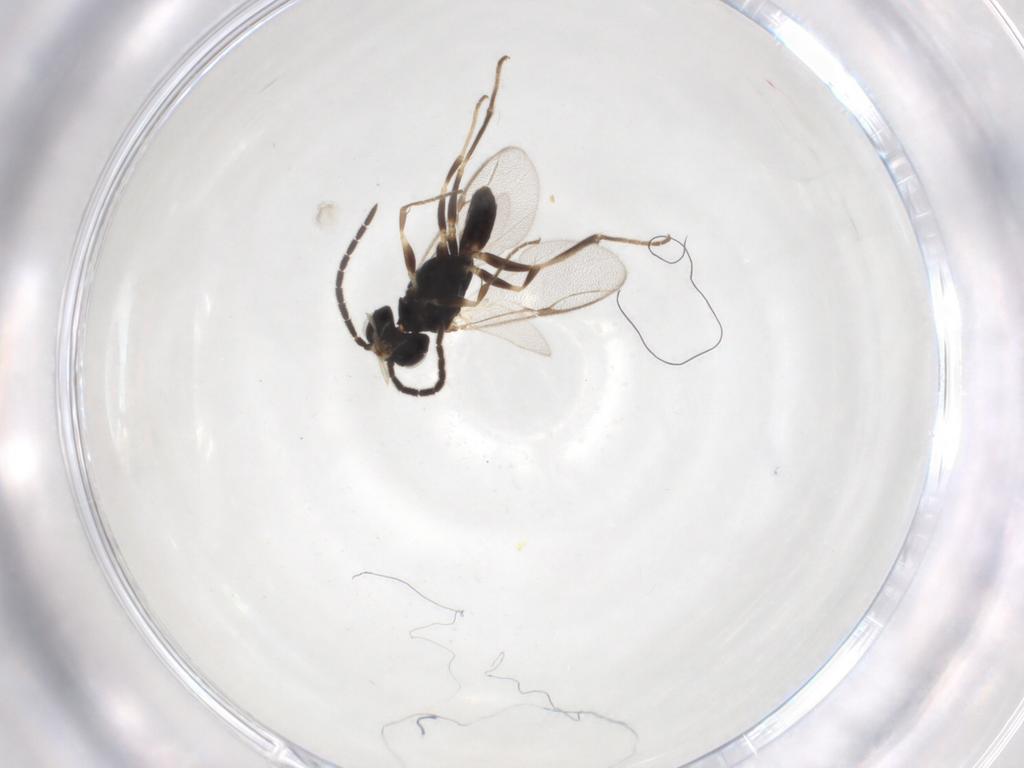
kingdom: Animalia
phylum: Arthropoda
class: Insecta
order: Hymenoptera
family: Dryinidae
